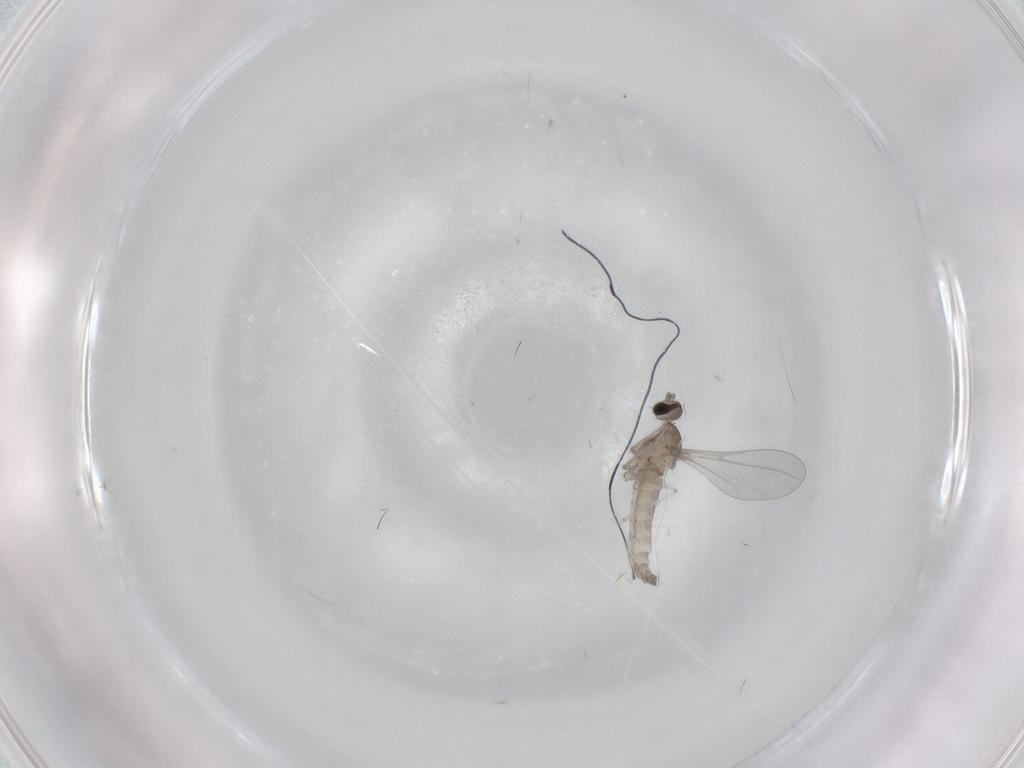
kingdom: Animalia
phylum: Arthropoda
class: Insecta
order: Diptera
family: Cecidomyiidae
